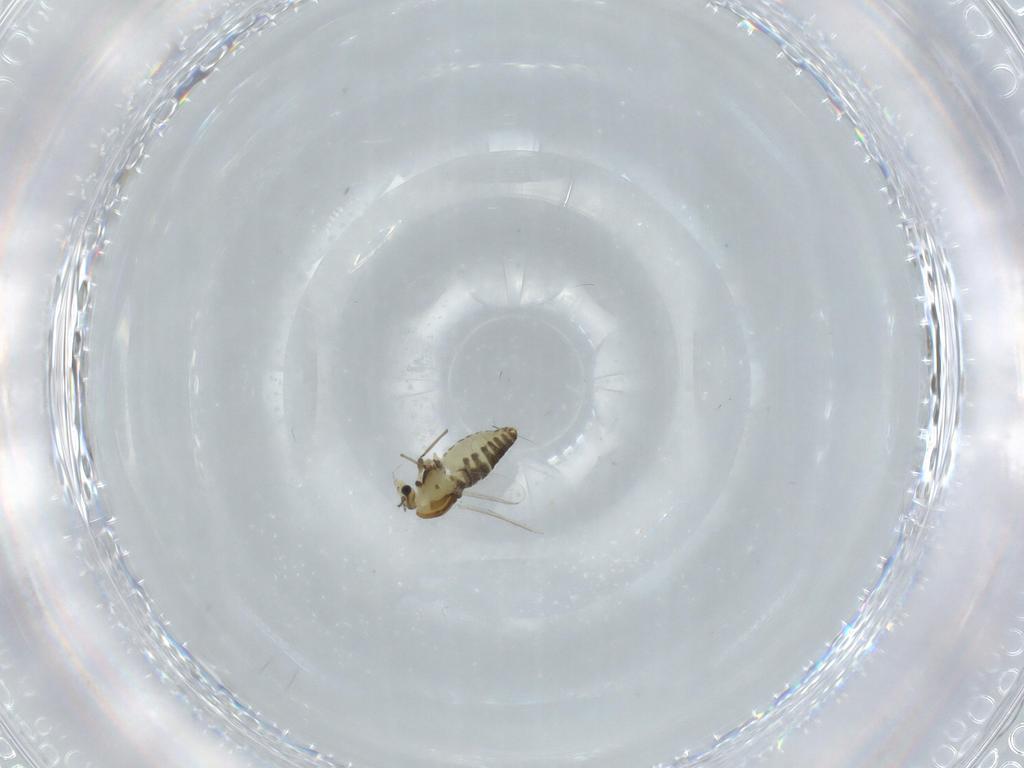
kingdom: Animalia
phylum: Arthropoda
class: Insecta
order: Diptera
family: Chironomidae
